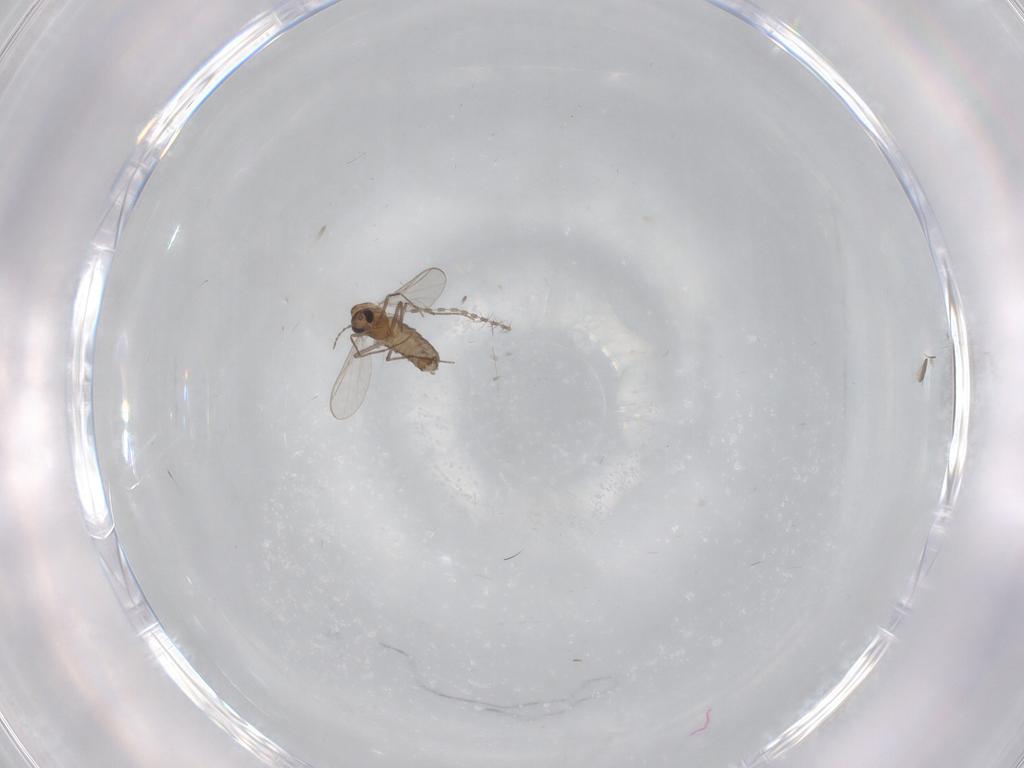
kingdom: Animalia
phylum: Arthropoda
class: Insecta
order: Diptera
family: Chironomidae
